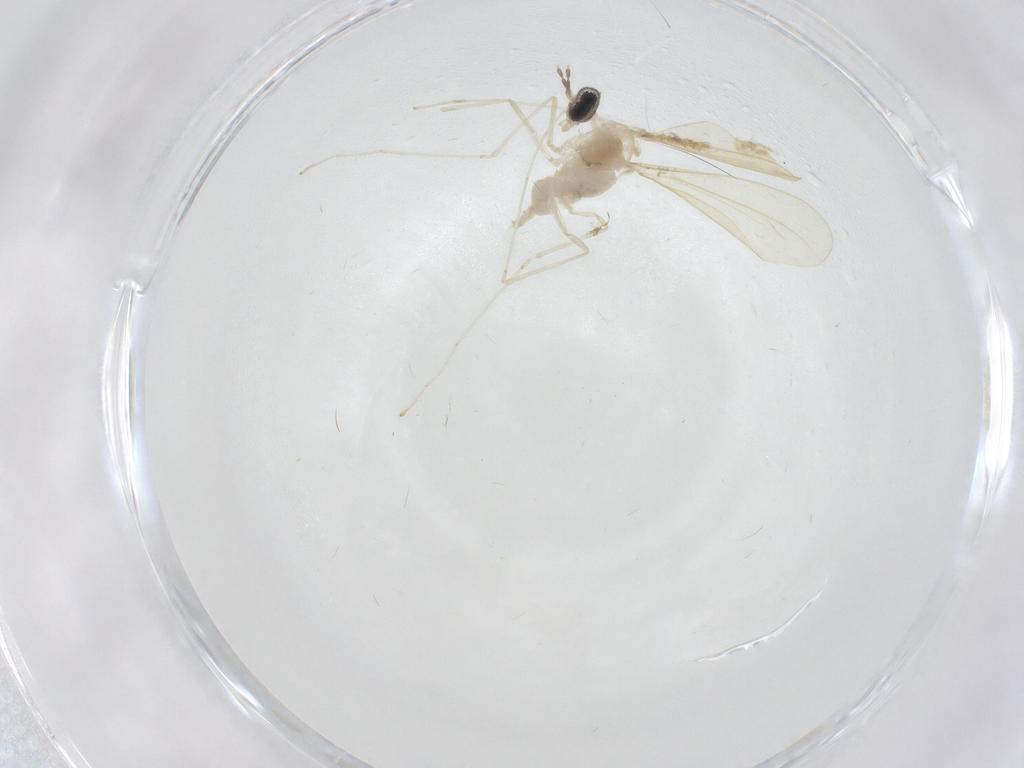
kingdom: Animalia
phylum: Arthropoda
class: Insecta
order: Diptera
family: Cecidomyiidae
